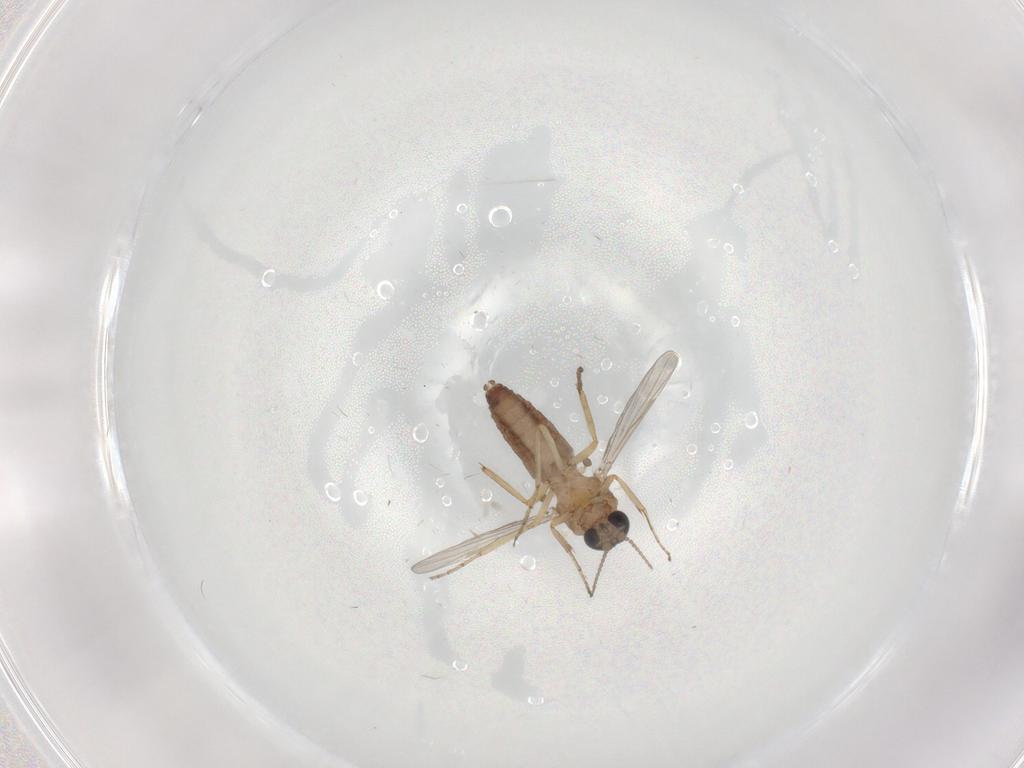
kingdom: Animalia
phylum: Arthropoda
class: Insecta
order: Diptera
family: Ceratopogonidae
